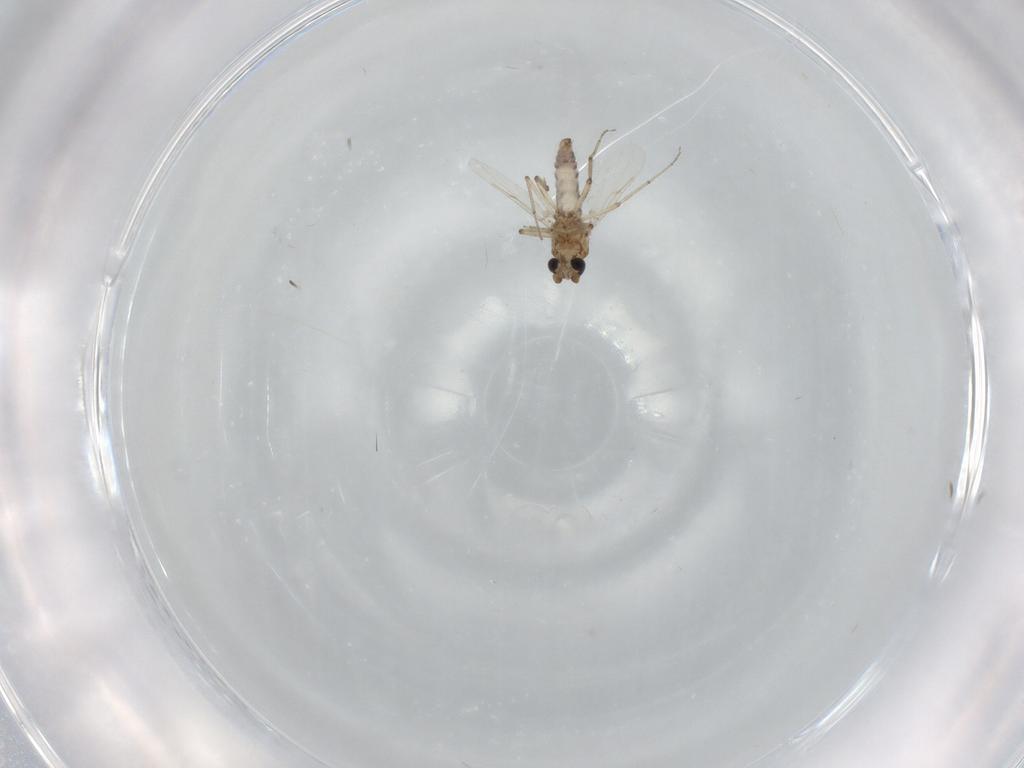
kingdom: Animalia
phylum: Arthropoda
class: Insecta
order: Diptera
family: Ceratopogonidae
